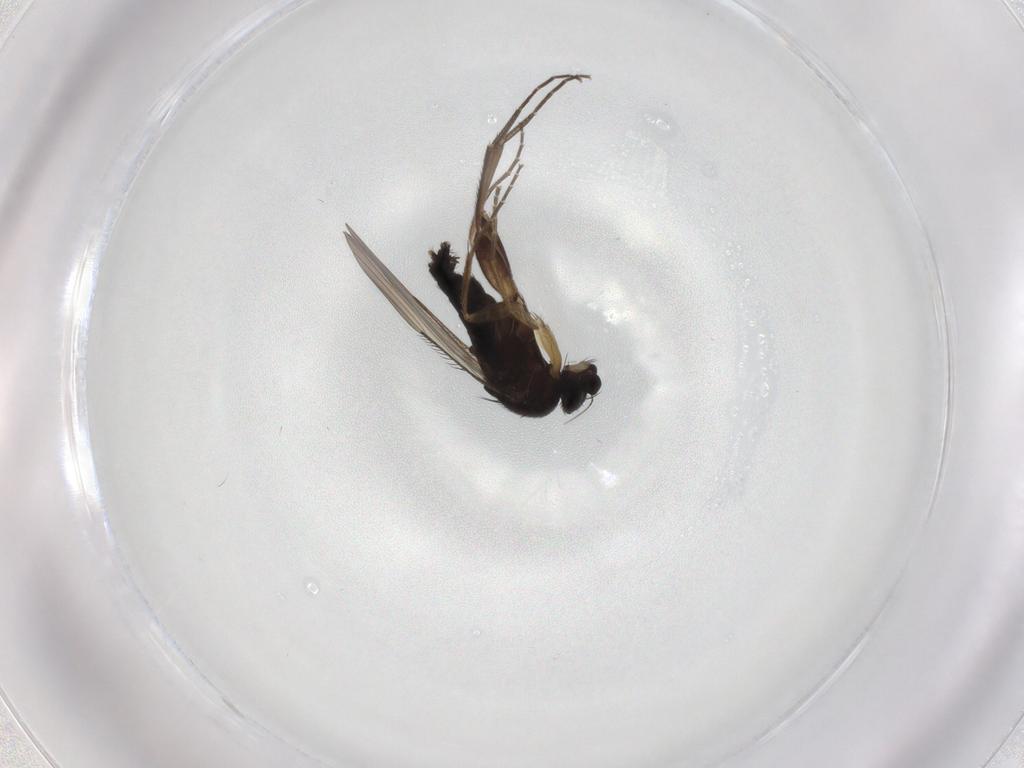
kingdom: Animalia
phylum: Arthropoda
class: Insecta
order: Diptera
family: Phoridae
